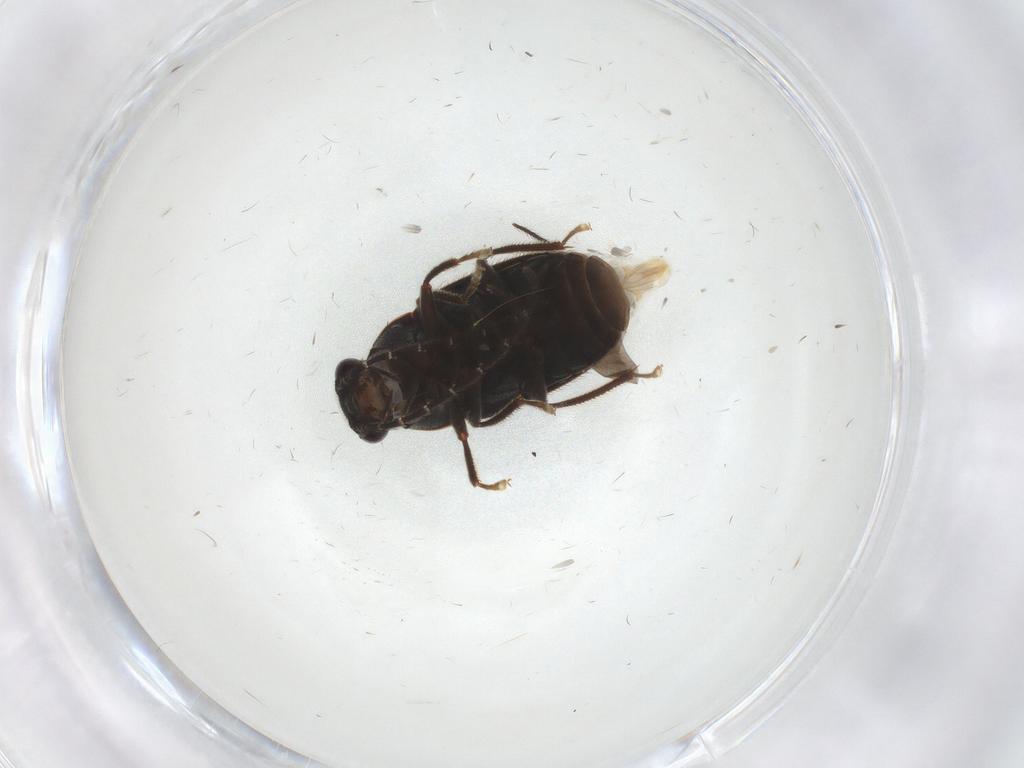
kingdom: Animalia
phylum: Arthropoda
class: Insecta
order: Coleoptera
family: Ptilodactylidae
